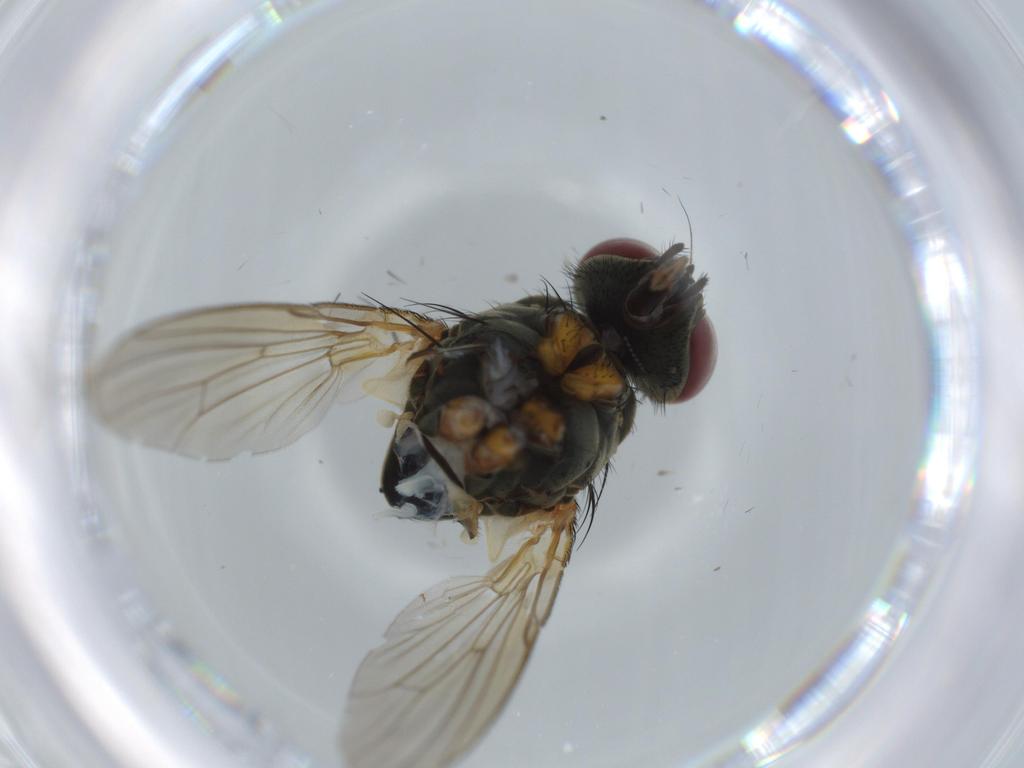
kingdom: Animalia
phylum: Arthropoda
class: Insecta
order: Diptera
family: Muscidae
